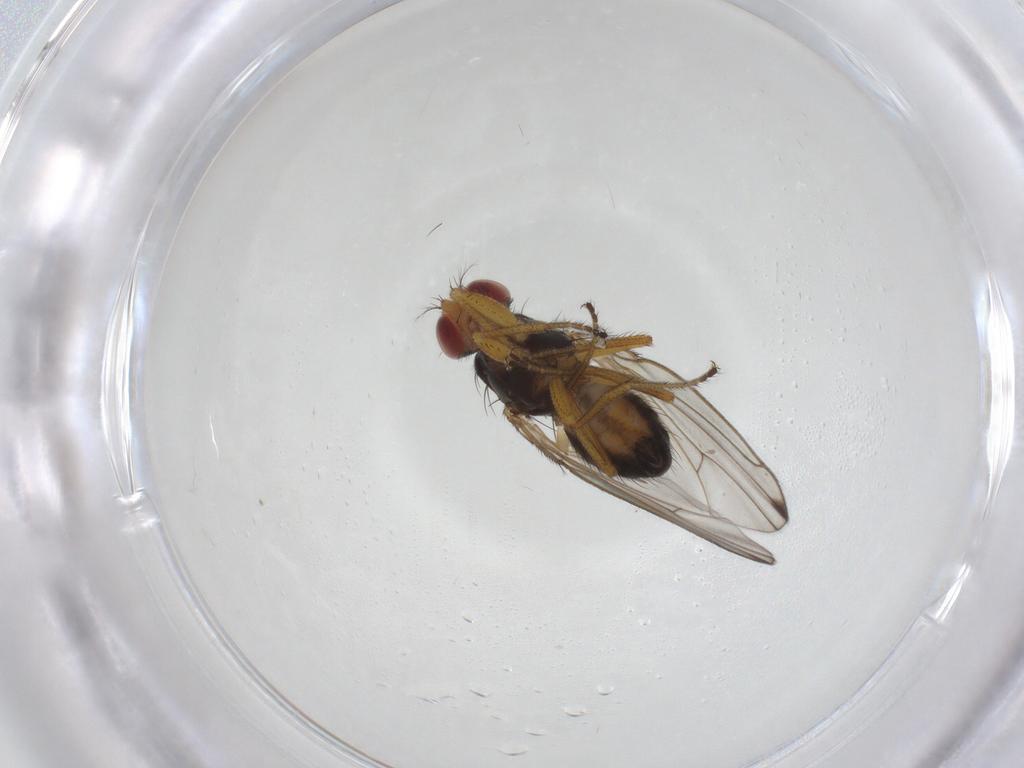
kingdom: Animalia
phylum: Arthropoda
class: Insecta
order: Diptera
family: Drosophilidae
